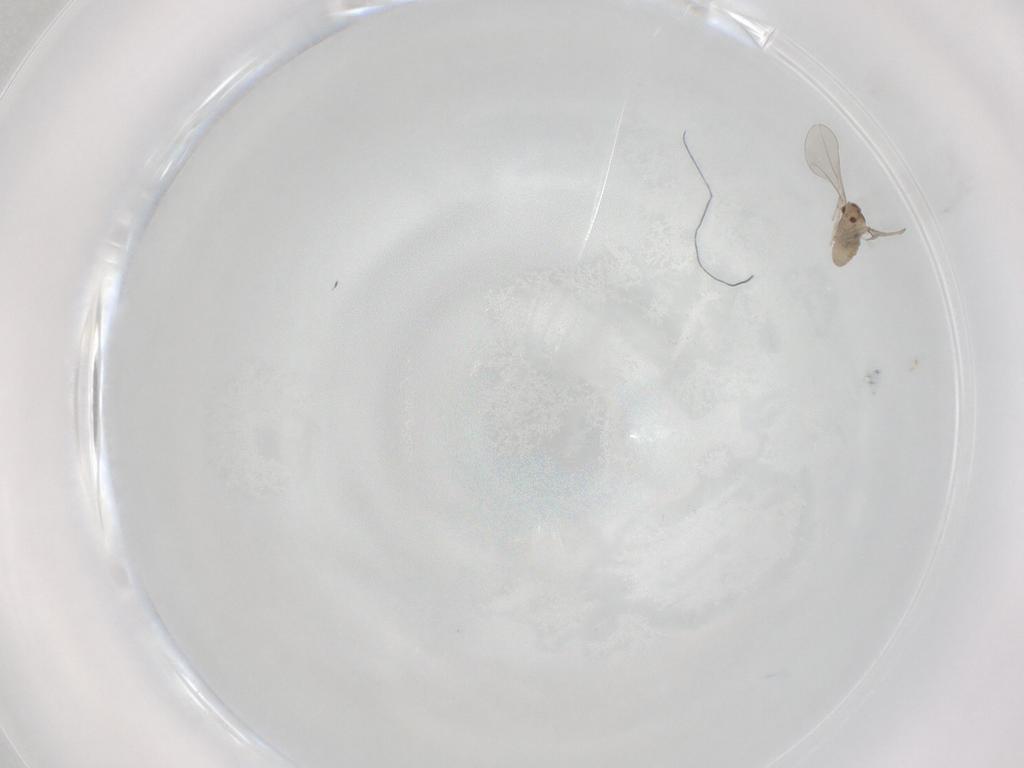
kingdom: Animalia
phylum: Arthropoda
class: Insecta
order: Diptera
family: Cecidomyiidae
